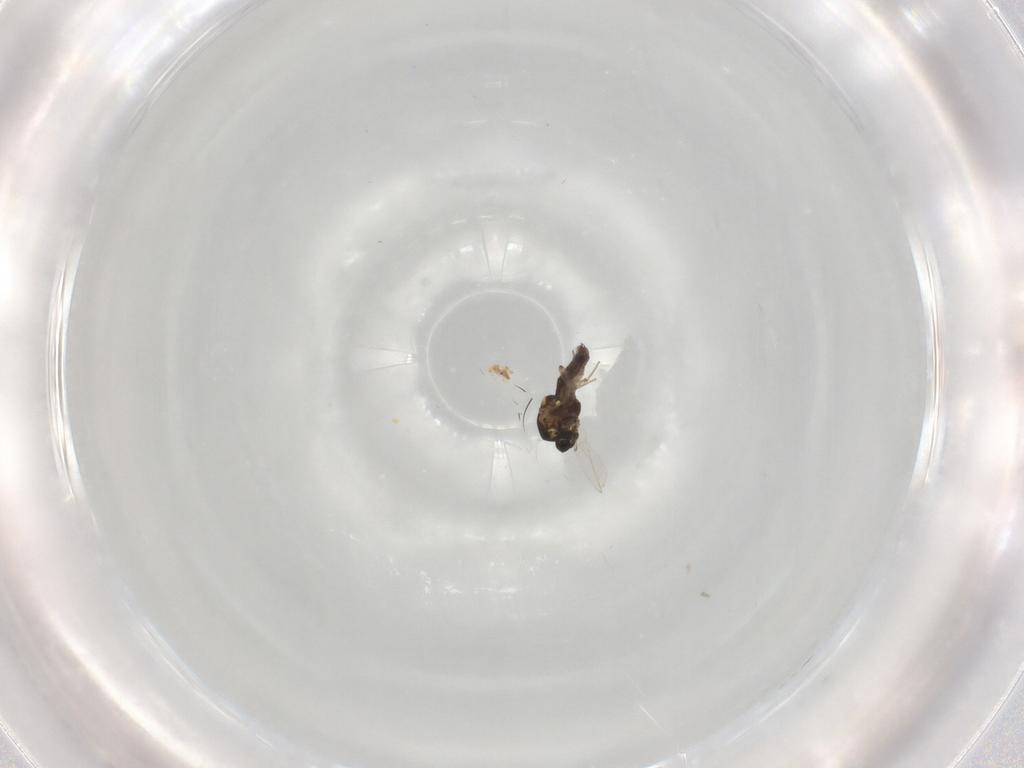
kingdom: Animalia
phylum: Arthropoda
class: Insecta
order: Diptera
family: Ceratopogonidae
